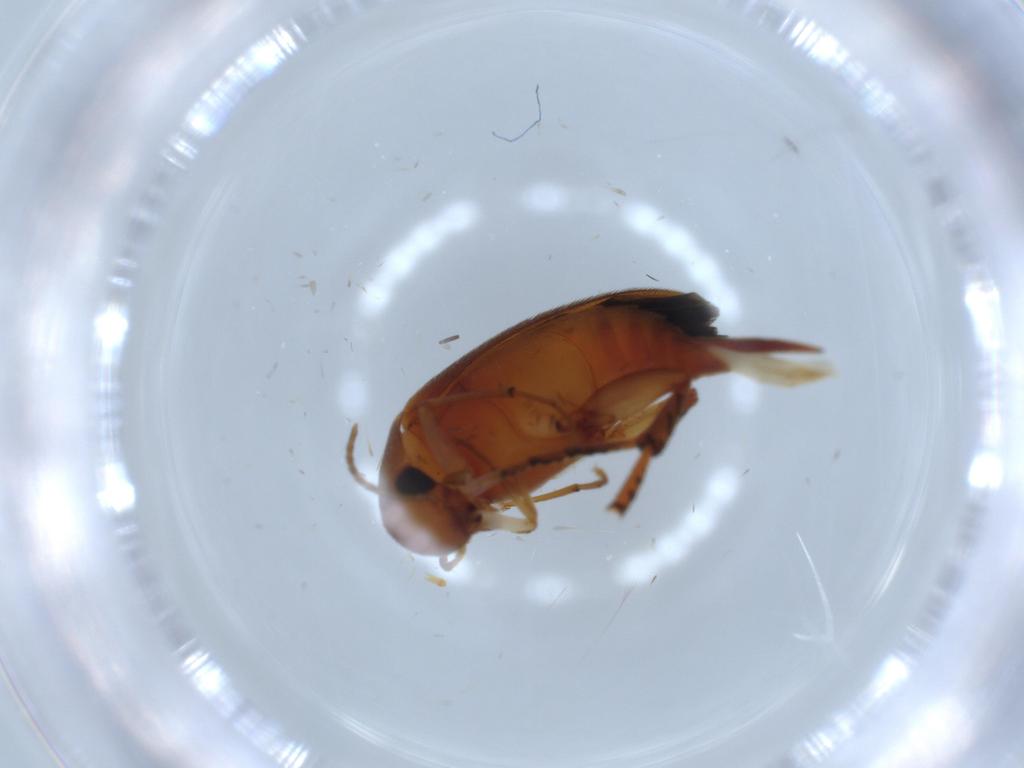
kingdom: Animalia
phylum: Arthropoda
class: Insecta
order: Coleoptera
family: Mordellidae
